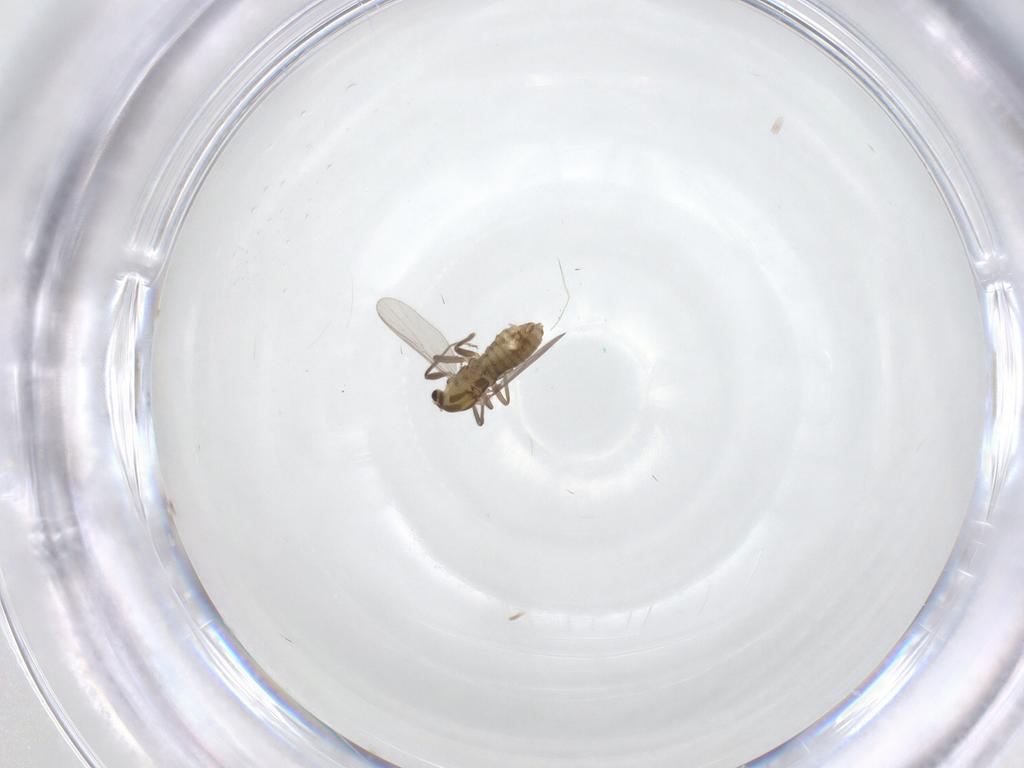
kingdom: Animalia
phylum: Arthropoda
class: Insecta
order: Diptera
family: Chironomidae
